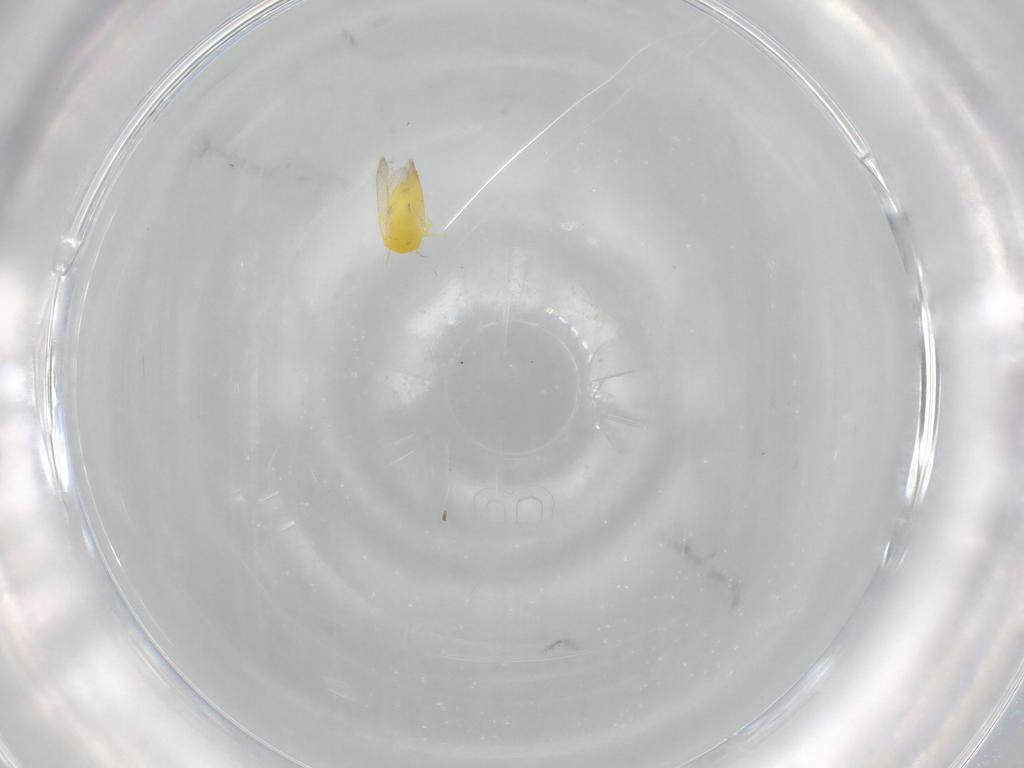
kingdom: Animalia
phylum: Arthropoda
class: Insecta
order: Hemiptera
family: Aleyrodidae
